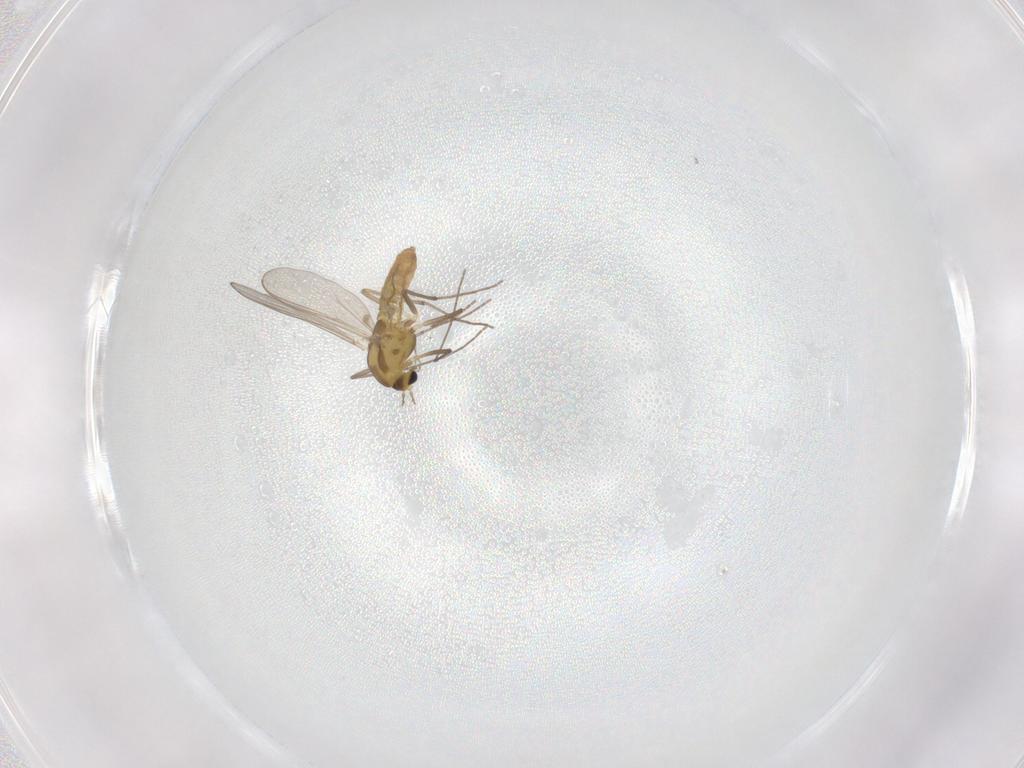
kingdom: Animalia
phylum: Arthropoda
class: Insecta
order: Diptera
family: Chironomidae
